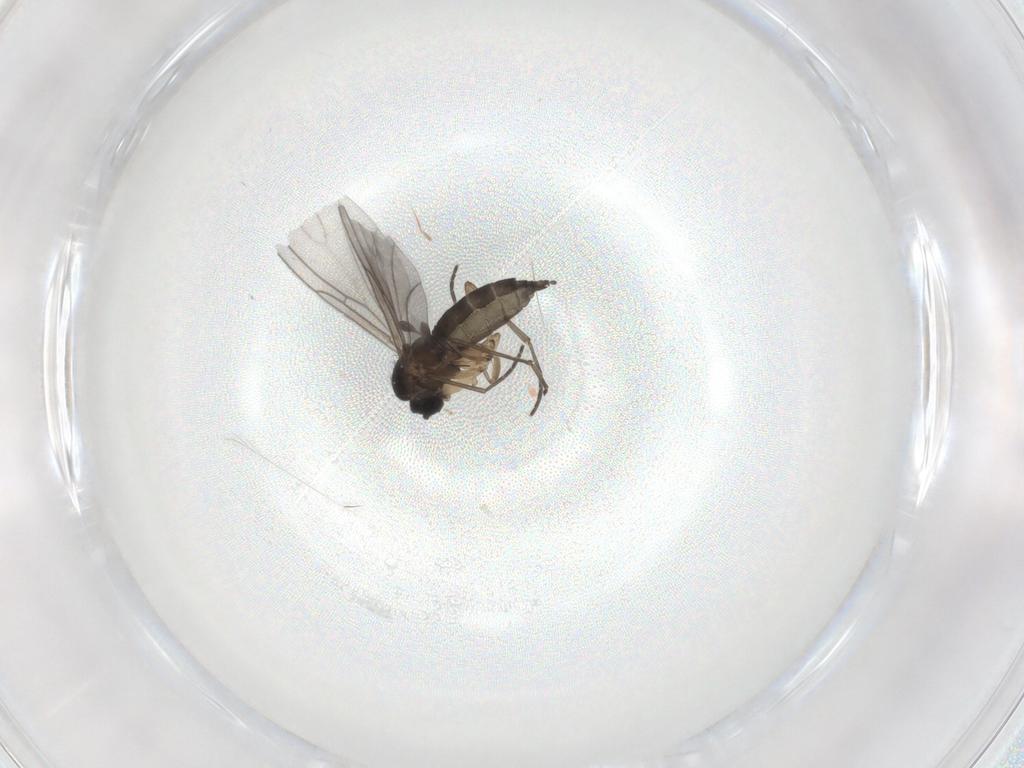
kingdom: Animalia
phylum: Arthropoda
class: Insecta
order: Diptera
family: Sciaridae
